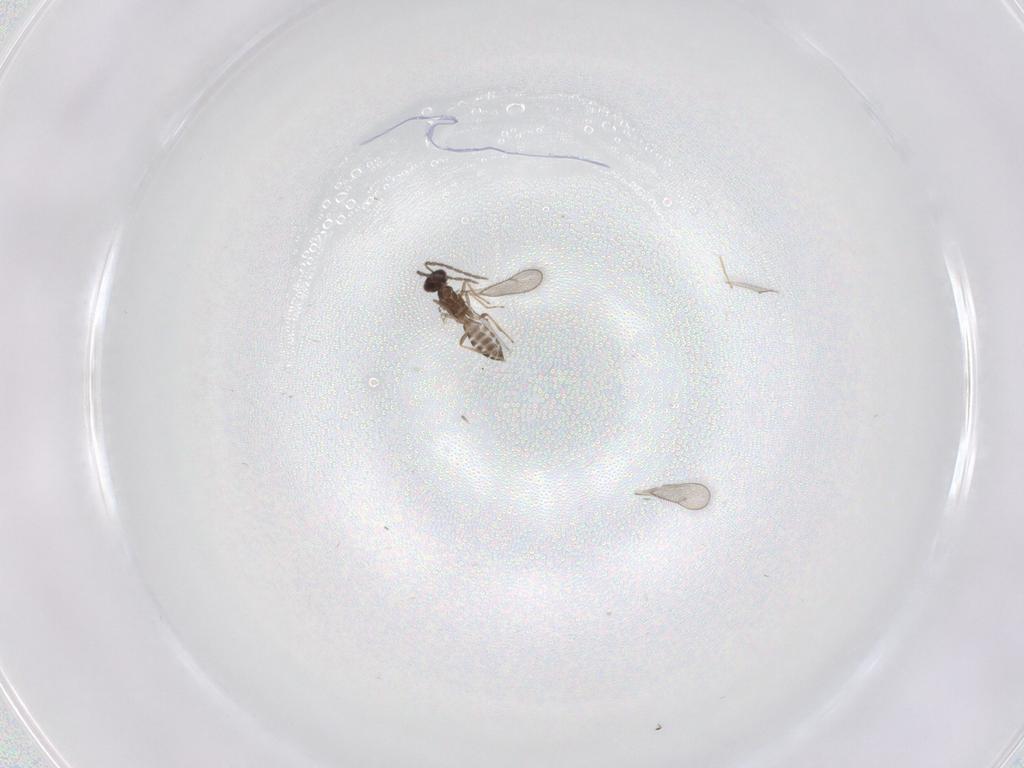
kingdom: Animalia
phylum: Arthropoda
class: Insecta
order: Hymenoptera
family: Eulophidae
